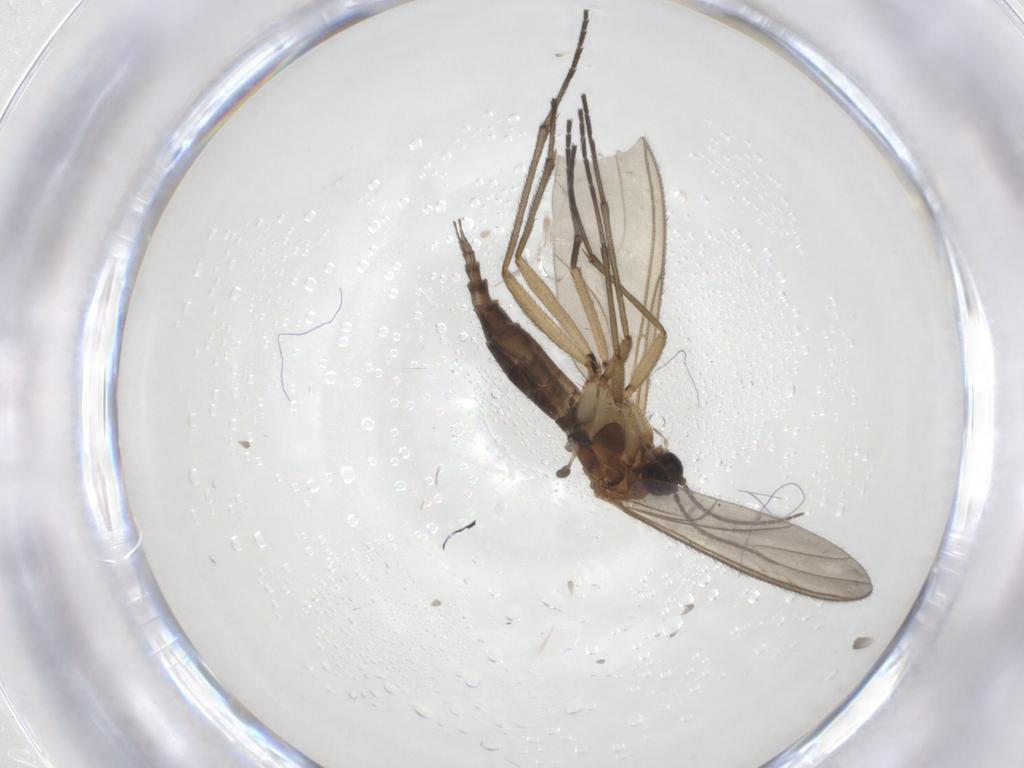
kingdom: Animalia
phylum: Arthropoda
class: Insecta
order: Diptera
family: Sciaridae
